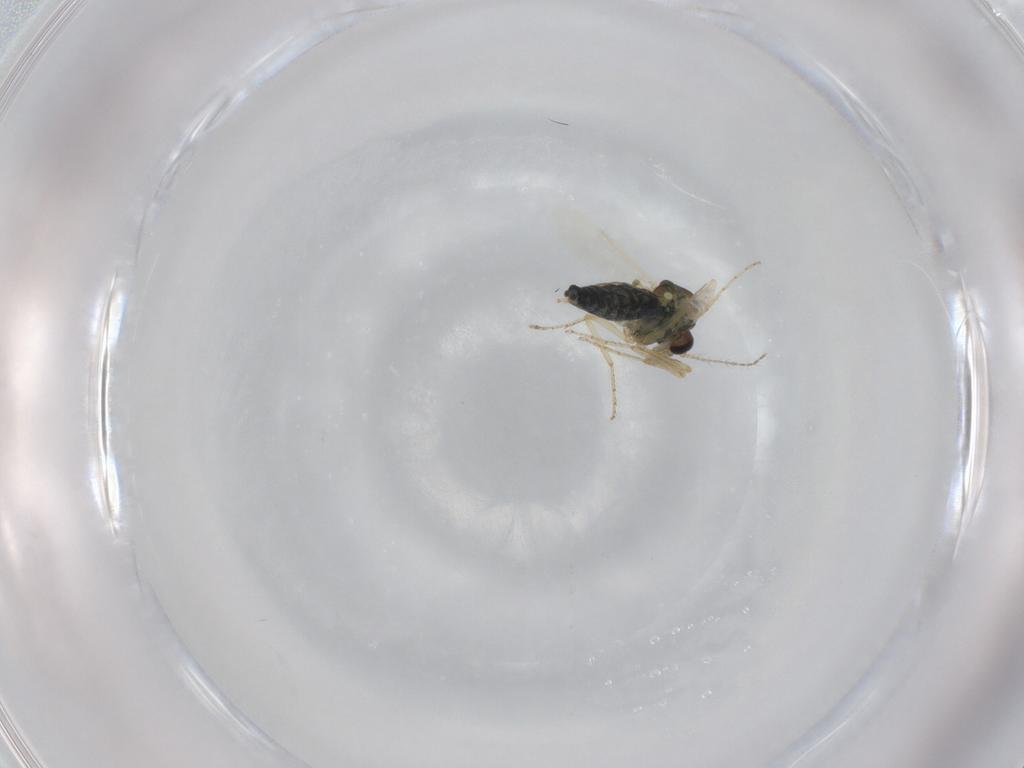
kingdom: Animalia
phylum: Arthropoda
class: Insecta
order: Diptera
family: Ceratopogonidae
